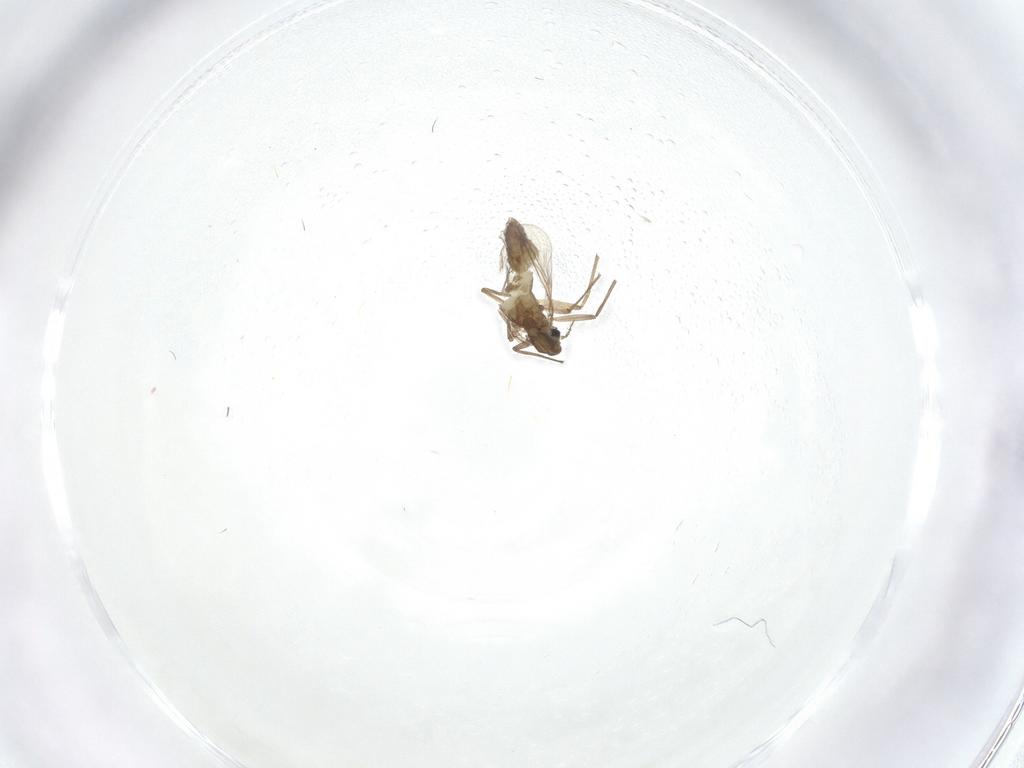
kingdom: Animalia
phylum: Arthropoda
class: Insecta
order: Diptera
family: Chironomidae
